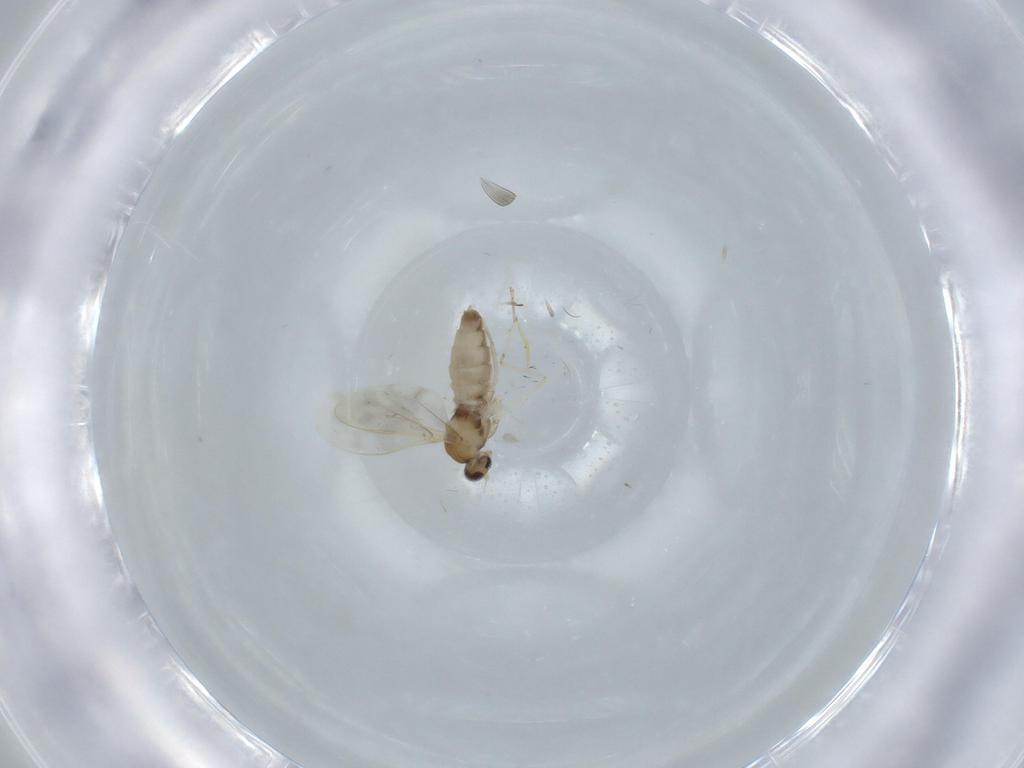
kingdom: Animalia
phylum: Arthropoda
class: Insecta
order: Diptera
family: Cecidomyiidae
